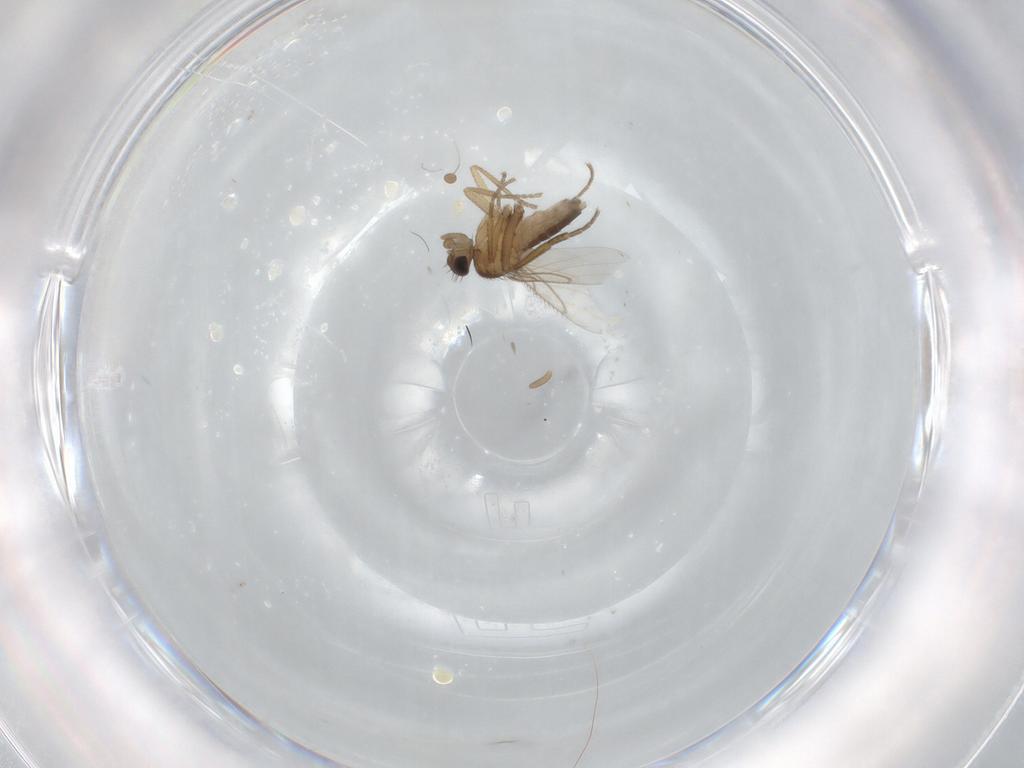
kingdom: Animalia
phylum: Arthropoda
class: Insecta
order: Diptera
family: Psychodidae
